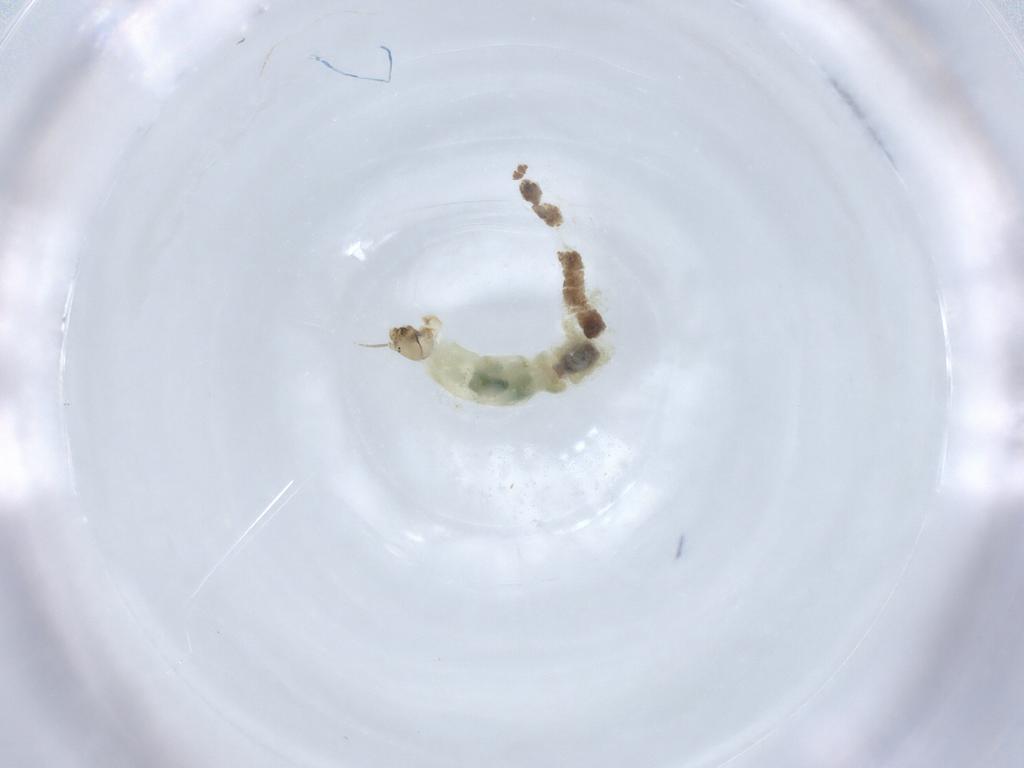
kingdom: Animalia
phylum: Arthropoda
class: Insecta
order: Diptera
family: Chironomidae
